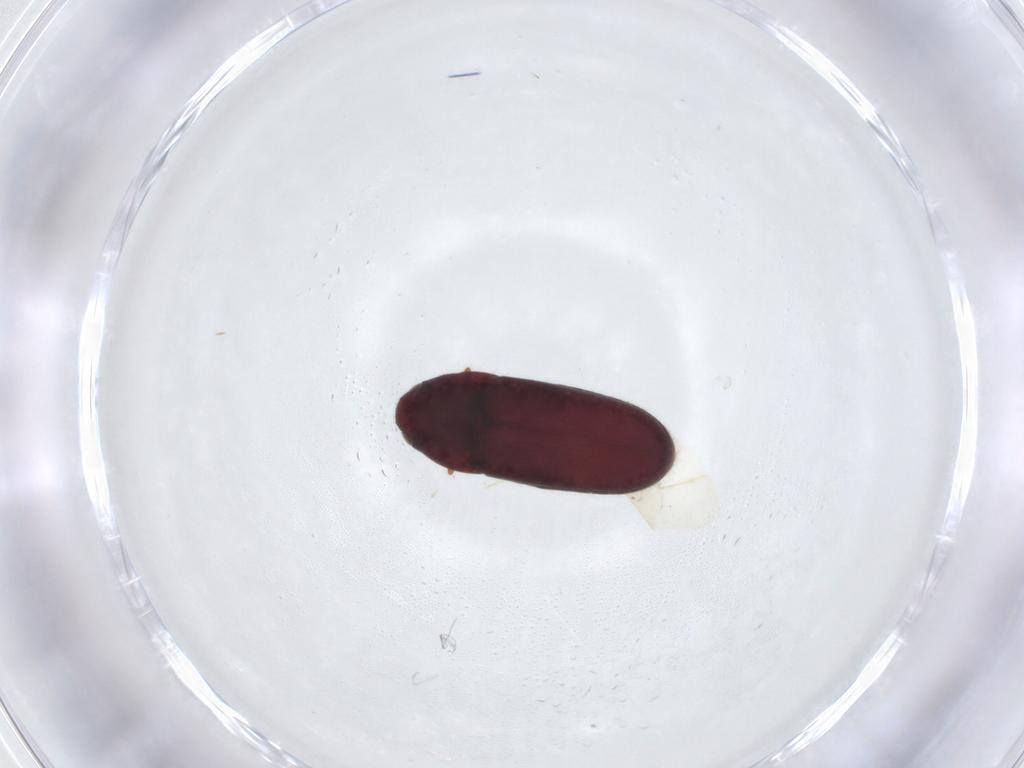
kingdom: Animalia
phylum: Arthropoda
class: Insecta
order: Coleoptera
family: Throscidae
